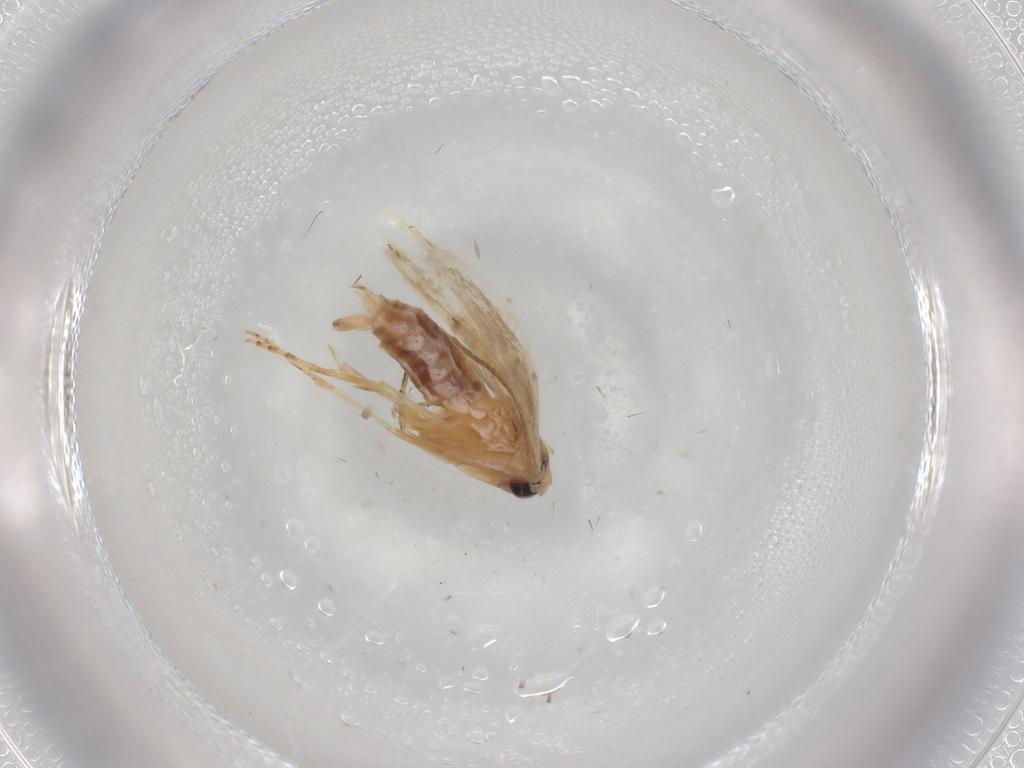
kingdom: Animalia
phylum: Arthropoda
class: Insecta
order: Lepidoptera
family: Bucculatricidae
